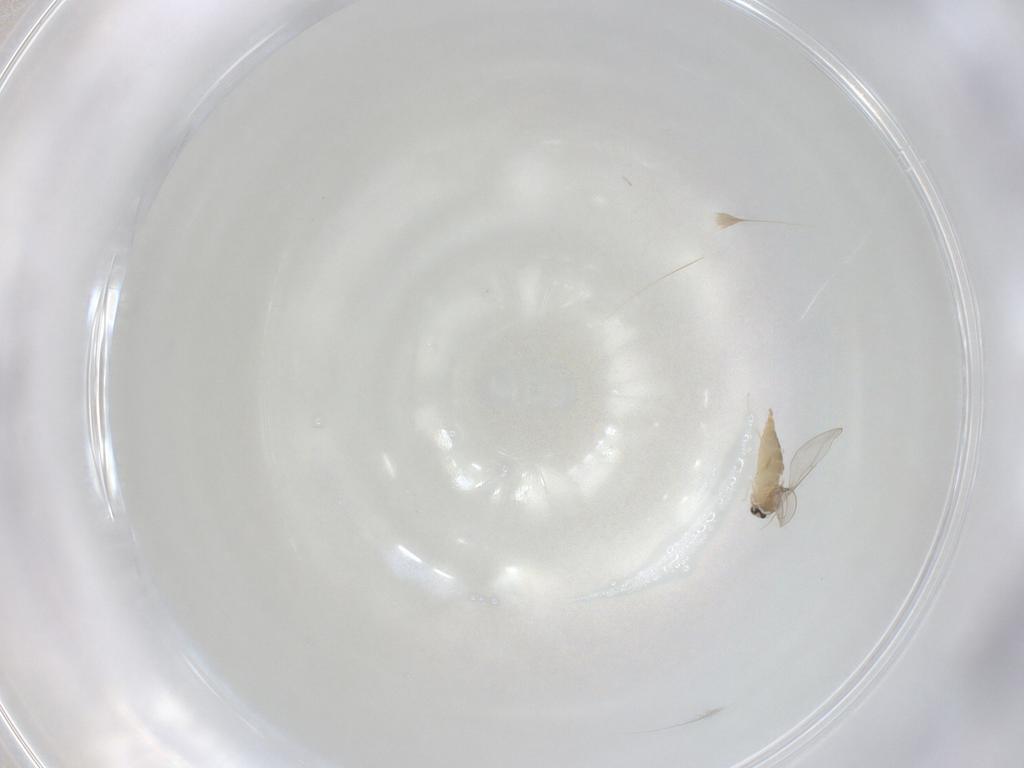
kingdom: Animalia
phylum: Arthropoda
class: Insecta
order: Diptera
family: Cecidomyiidae
